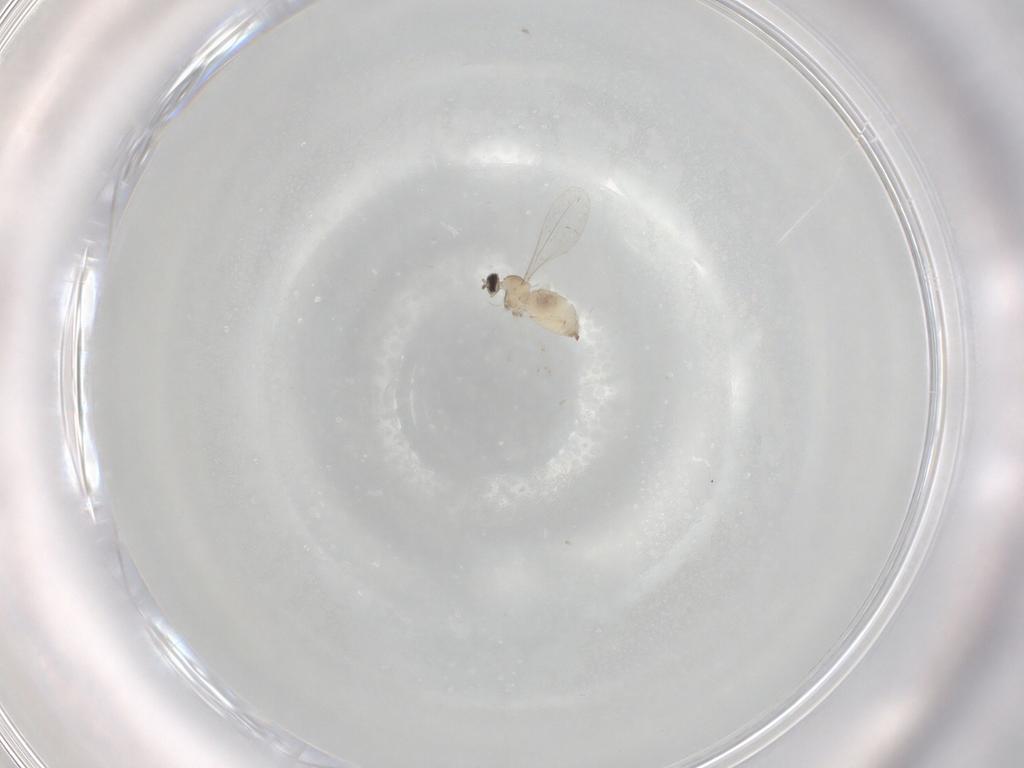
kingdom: Animalia
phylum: Arthropoda
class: Insecta
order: Diptera
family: Cecidomyiidae
